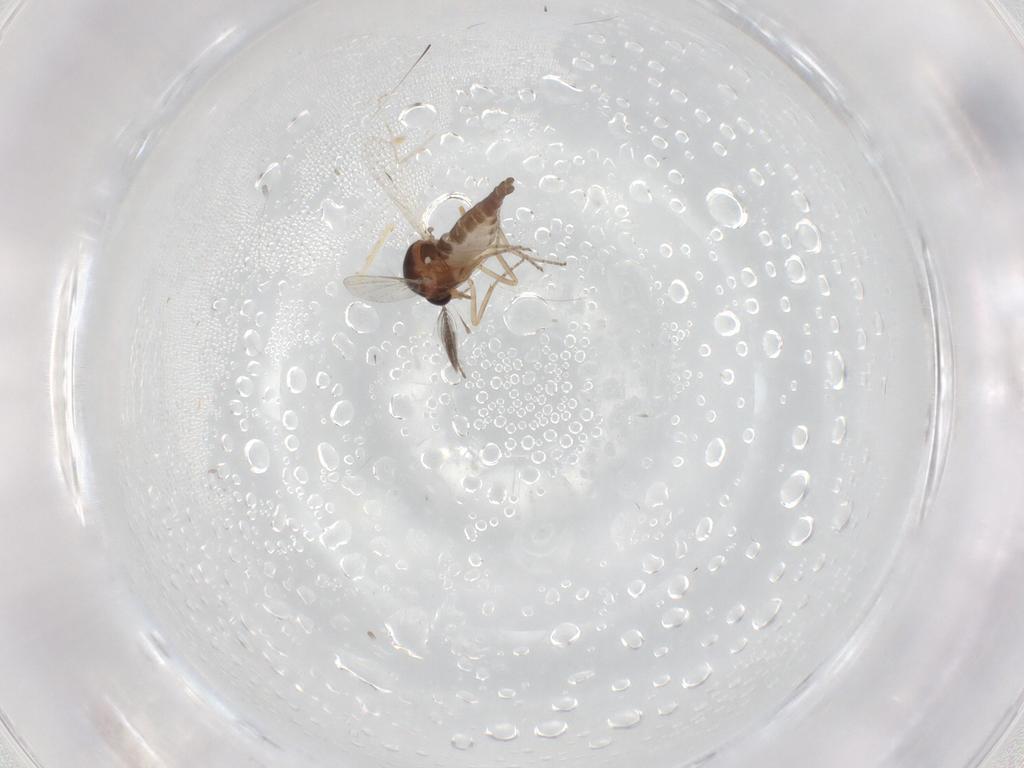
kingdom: Animalia
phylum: Arthropoda
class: Insecta
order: Diptera
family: Ceratopogonidae
